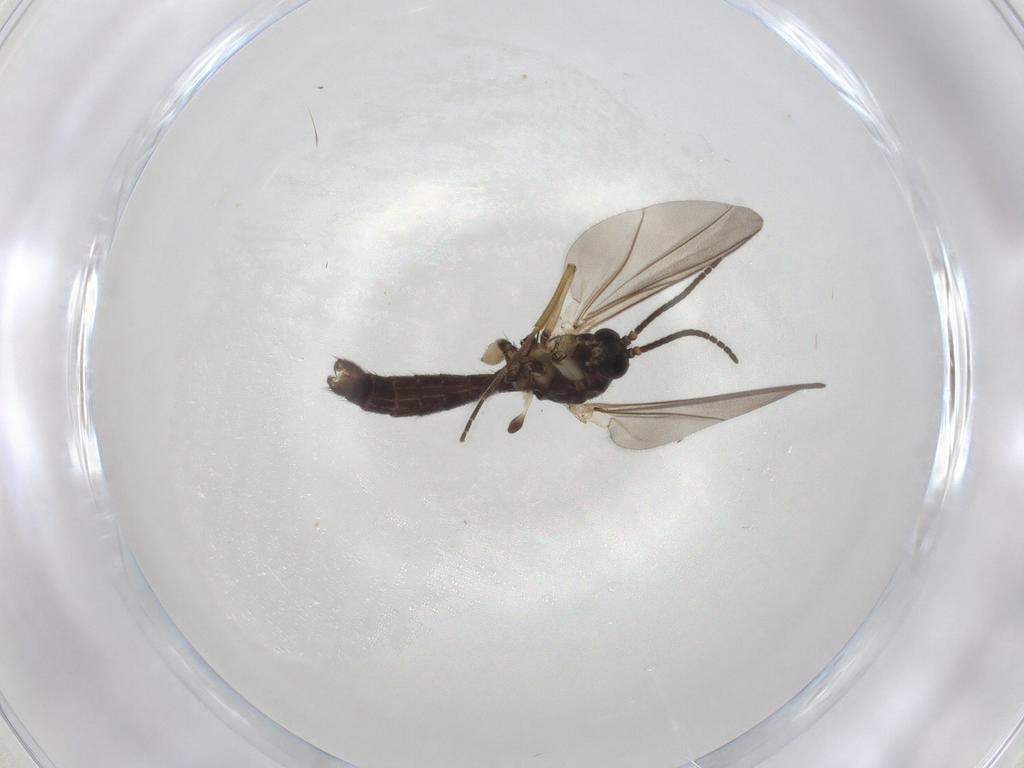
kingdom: Animalia
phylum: Arthropoda
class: Insecta
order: Diptera
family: Mycetophilidae
